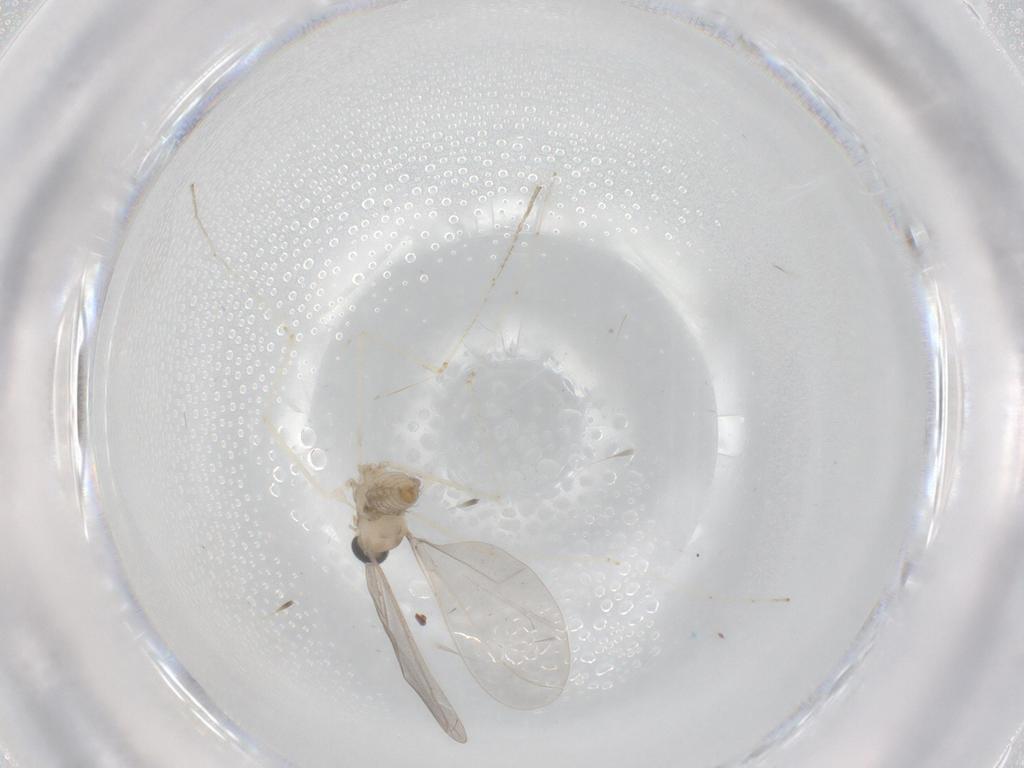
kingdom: Animalia
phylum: Arthropoda
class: Insecta
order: Diptera
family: Cecidomyiidae
